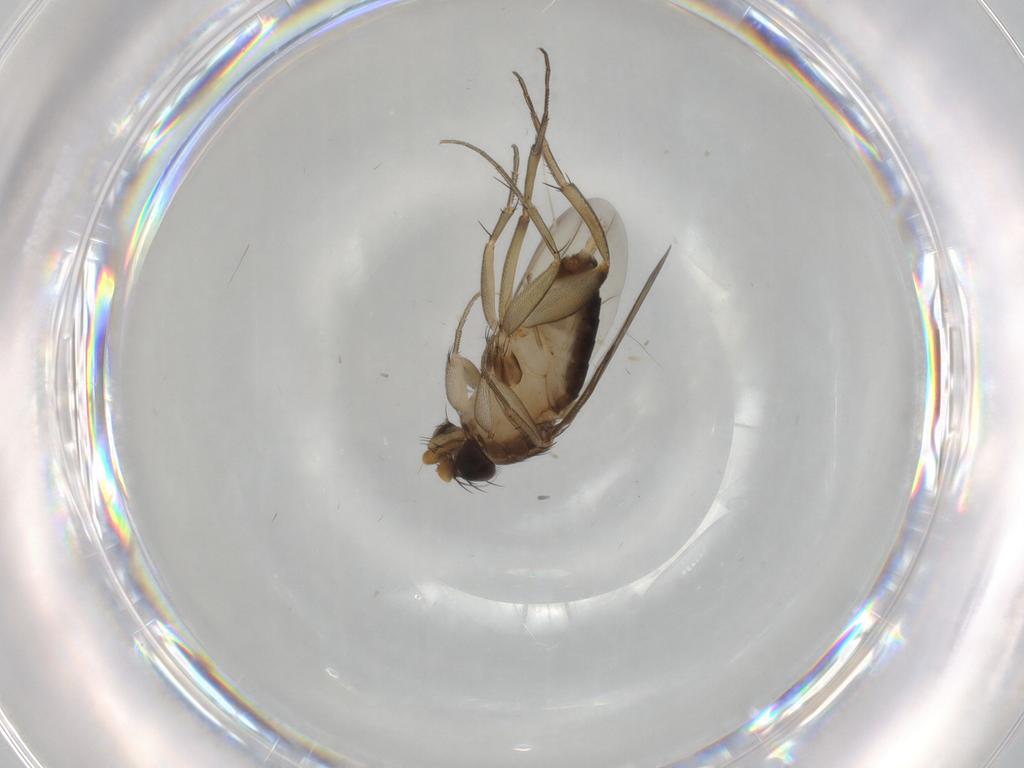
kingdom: Animalia
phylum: Arthropoda
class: Insecta
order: Diptera
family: Phoridae
